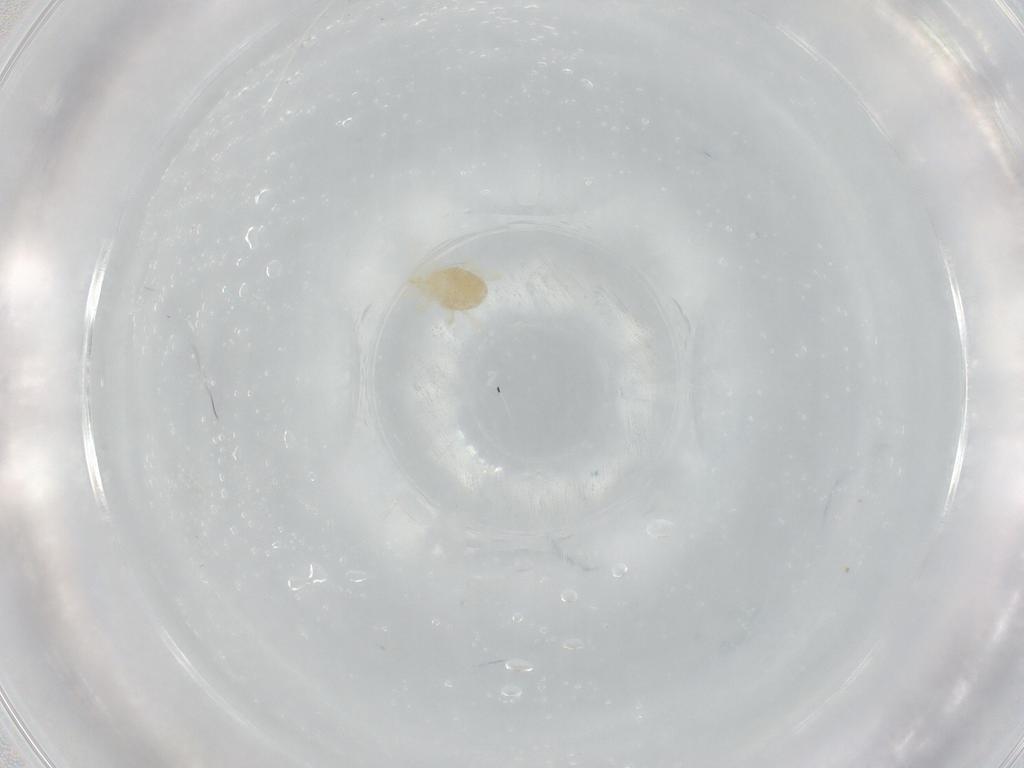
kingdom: Animalia
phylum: Arthropoda
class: Arachnida
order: Trombidiformes
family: Erythraeidae
